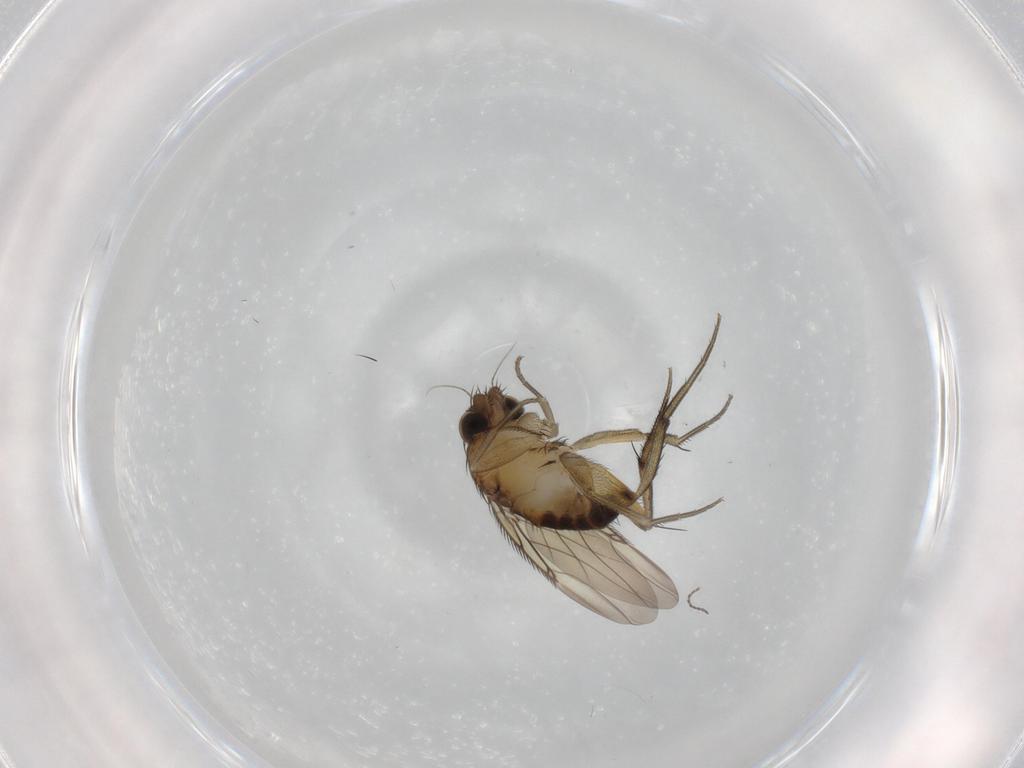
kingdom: Animalia
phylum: Arthropoda
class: Insecta
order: Diptera
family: Phoridae
